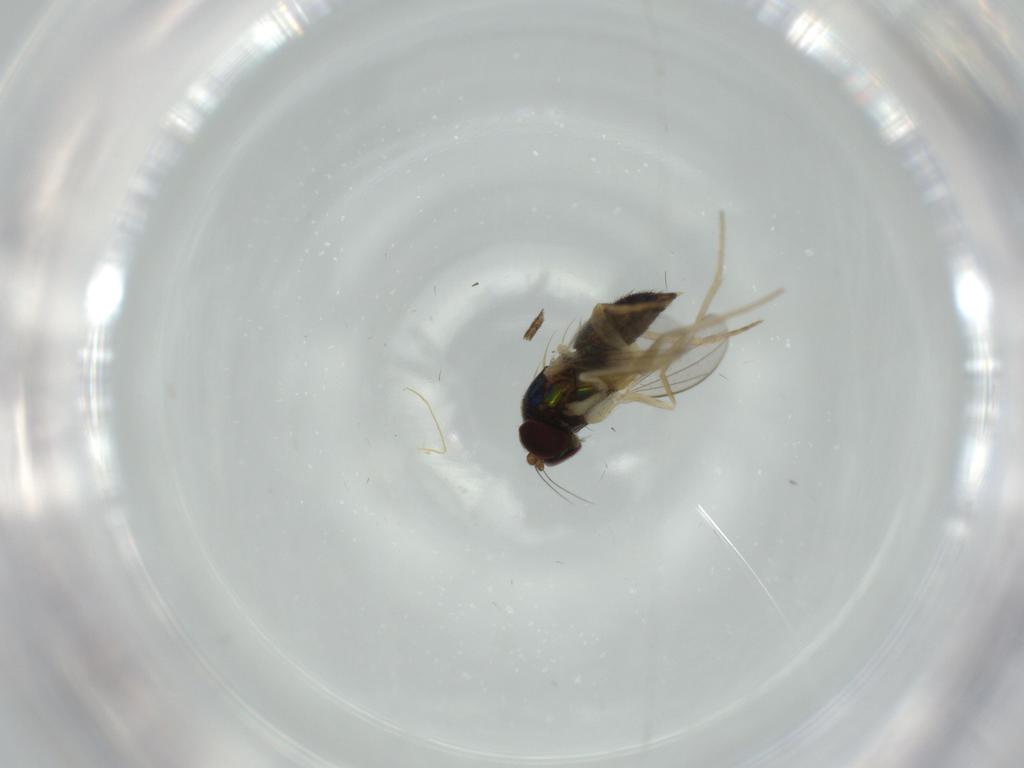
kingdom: Animalia
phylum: Arthropoda
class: Insecta
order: Diptera
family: Dolichopodidae
